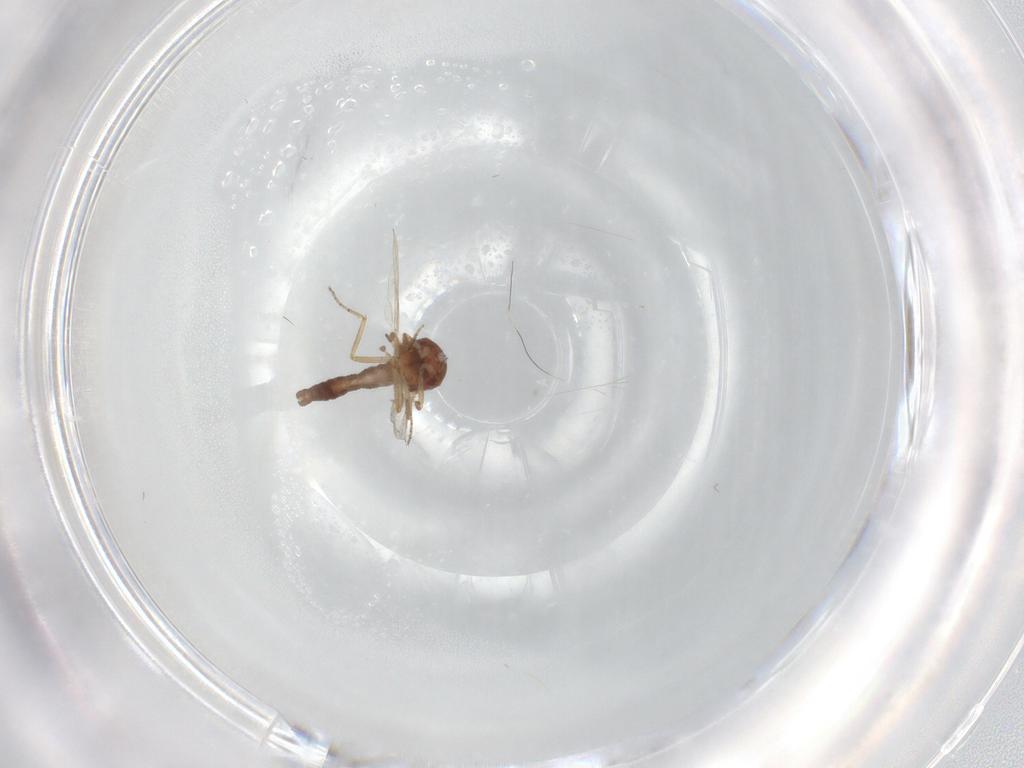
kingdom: Animalia
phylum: Arthropoda
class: Insecta
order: Diptera
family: Ceratopogonidae
